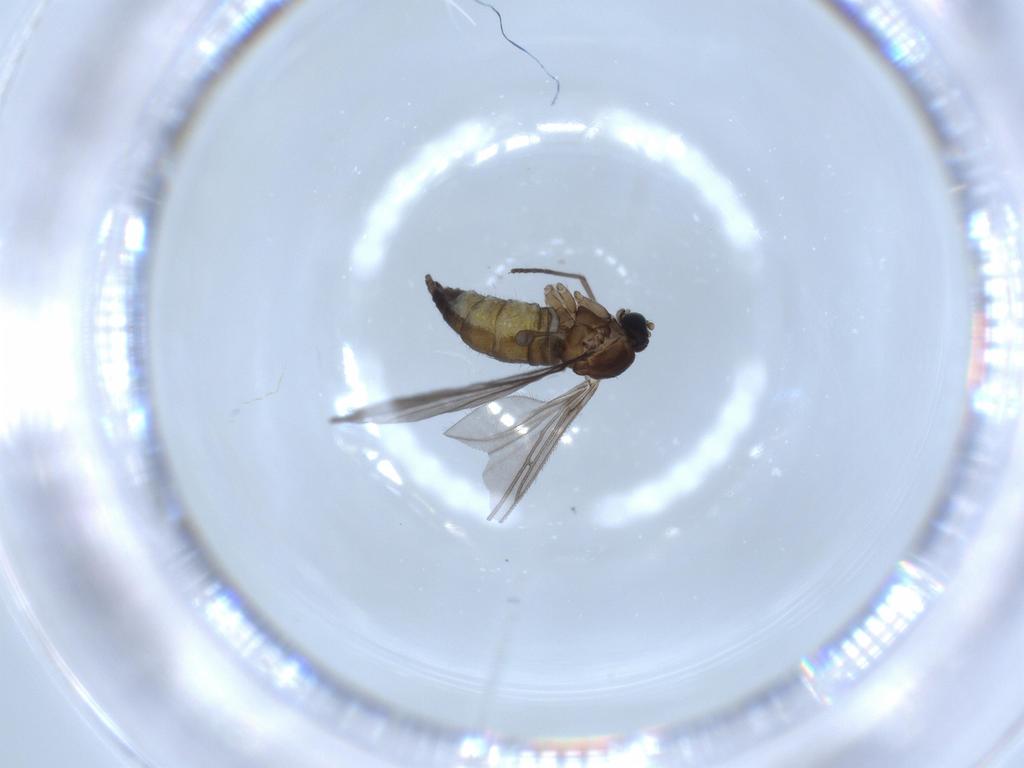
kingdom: Animalia
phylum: Arthropoda
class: Insecta
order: Diptera
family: Sciaridae
